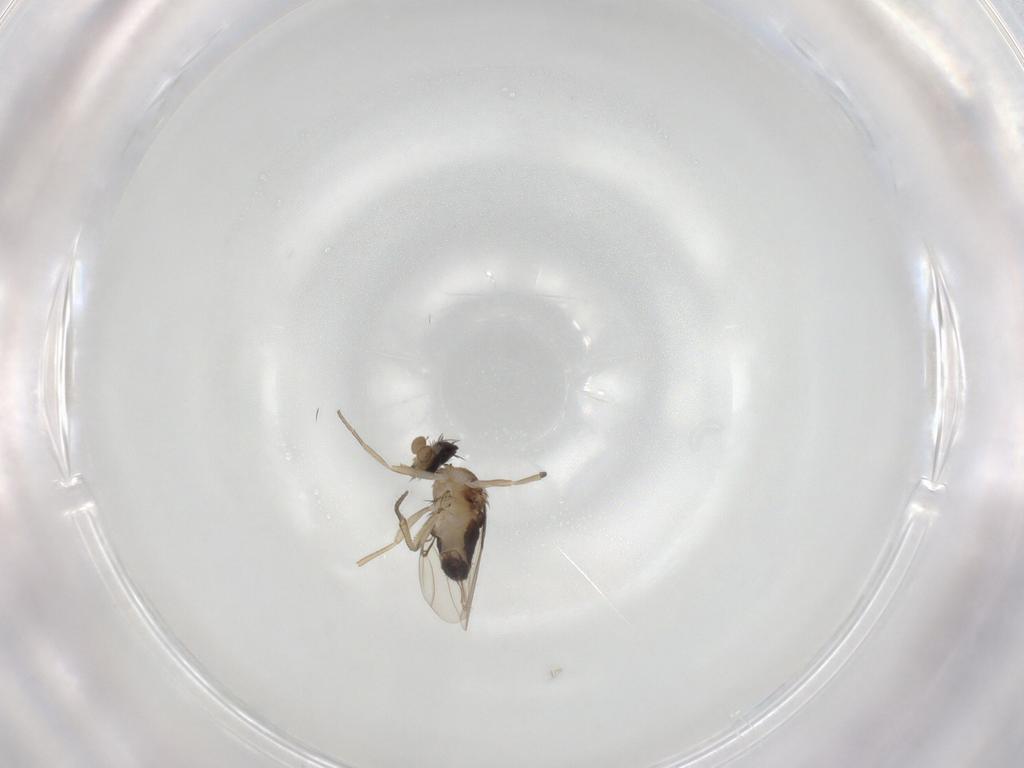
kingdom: Animalia
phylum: Arthropoda
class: Insecta
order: Diptera
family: Phoridae
